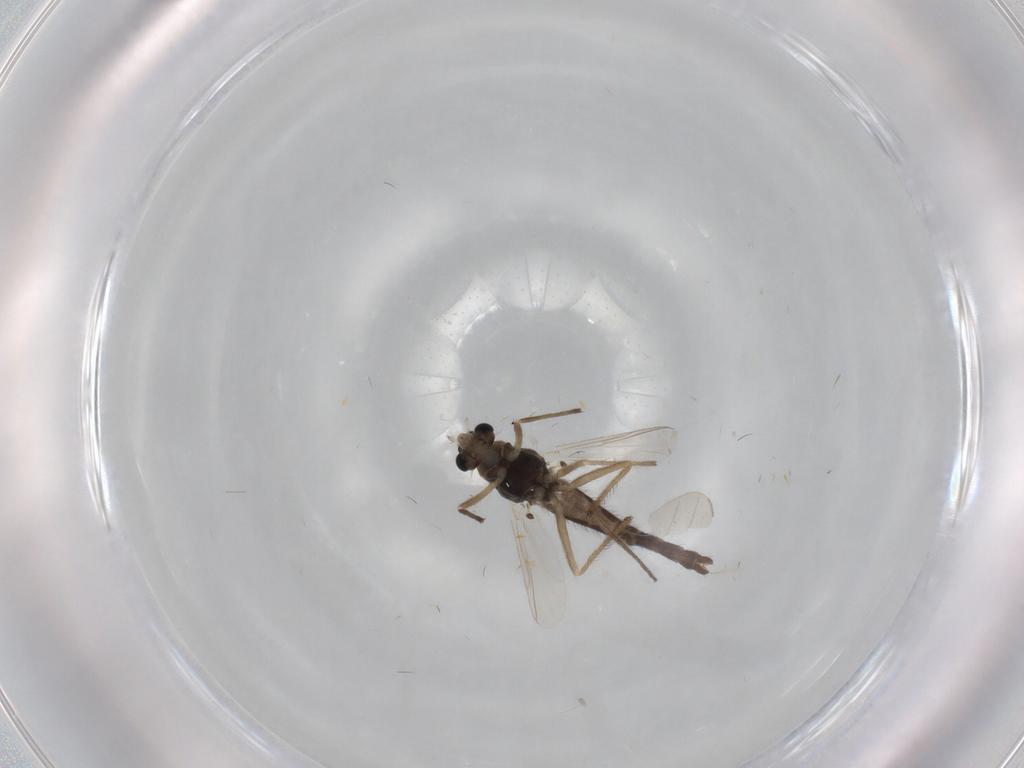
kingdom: Animalia
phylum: Arthropoda
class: Insecta
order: Diptera
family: Chironomidae
